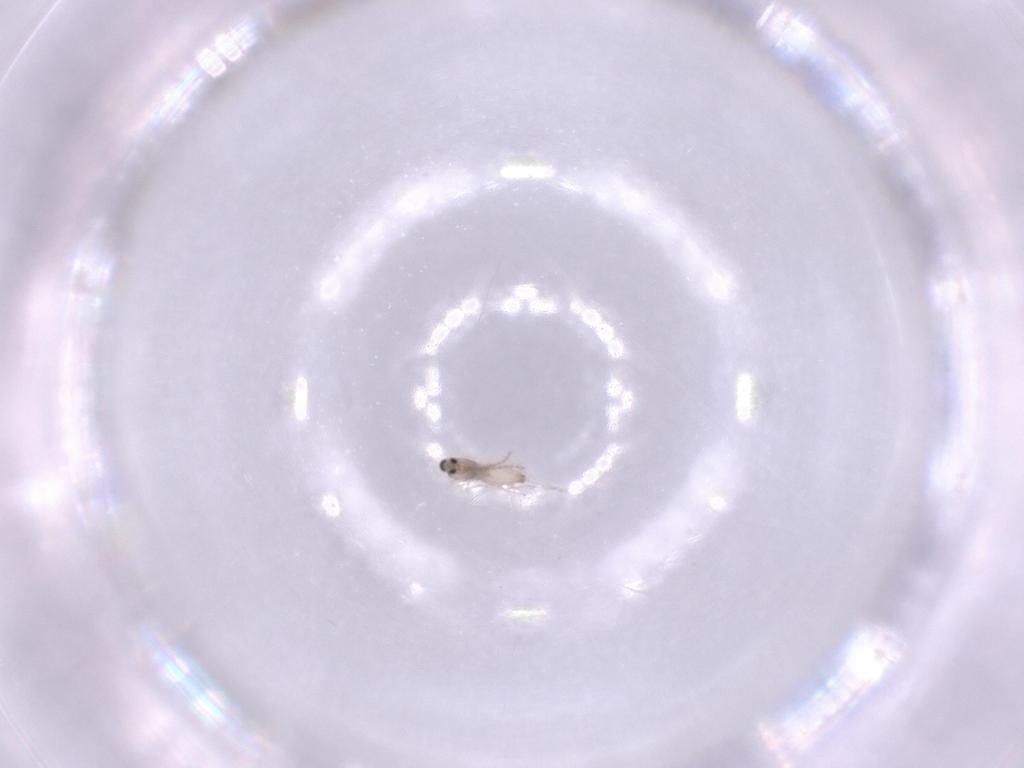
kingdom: Animalia
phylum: Arthropoda
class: Insecta
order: Diptera
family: Cecidomyiidae
